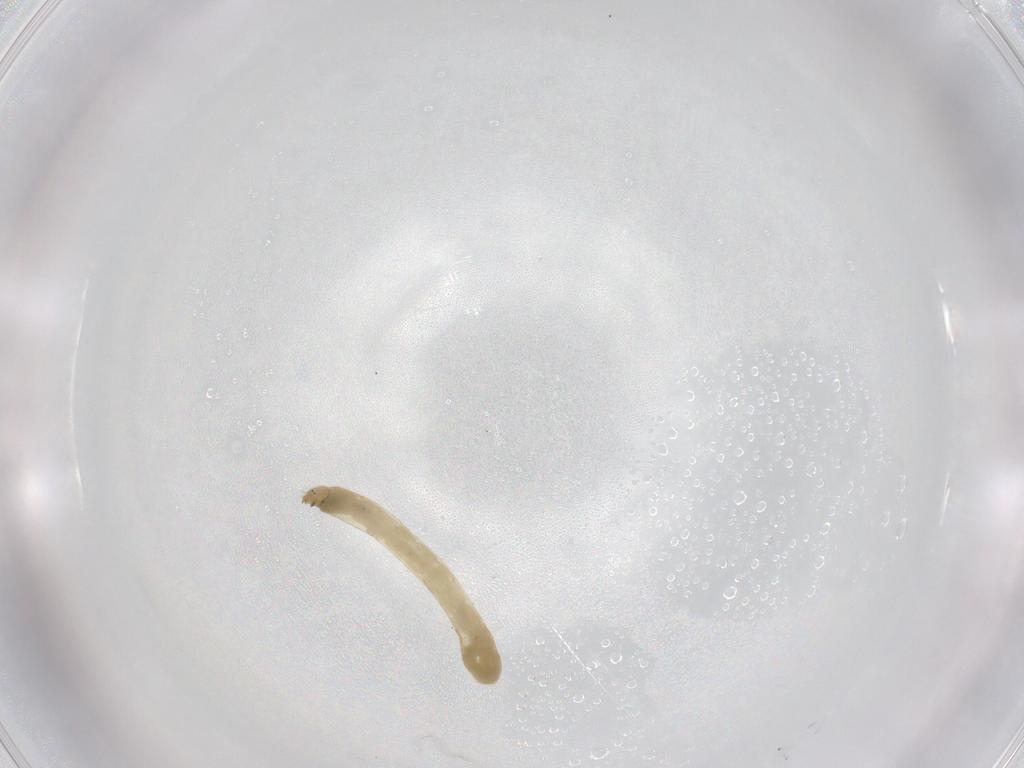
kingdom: Animalia
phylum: Arthropoda
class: Insecta
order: Diptera
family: Chironomidae
